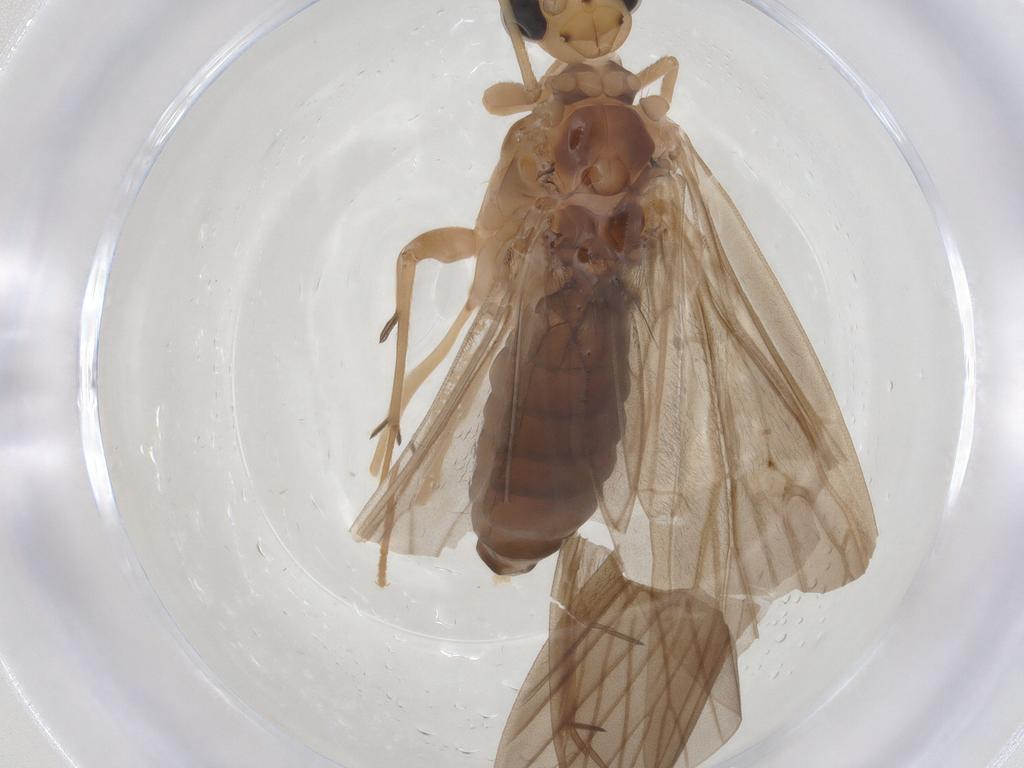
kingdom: Animalia
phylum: Arthropoda
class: Insecta
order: Diptera
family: Chironomidae
